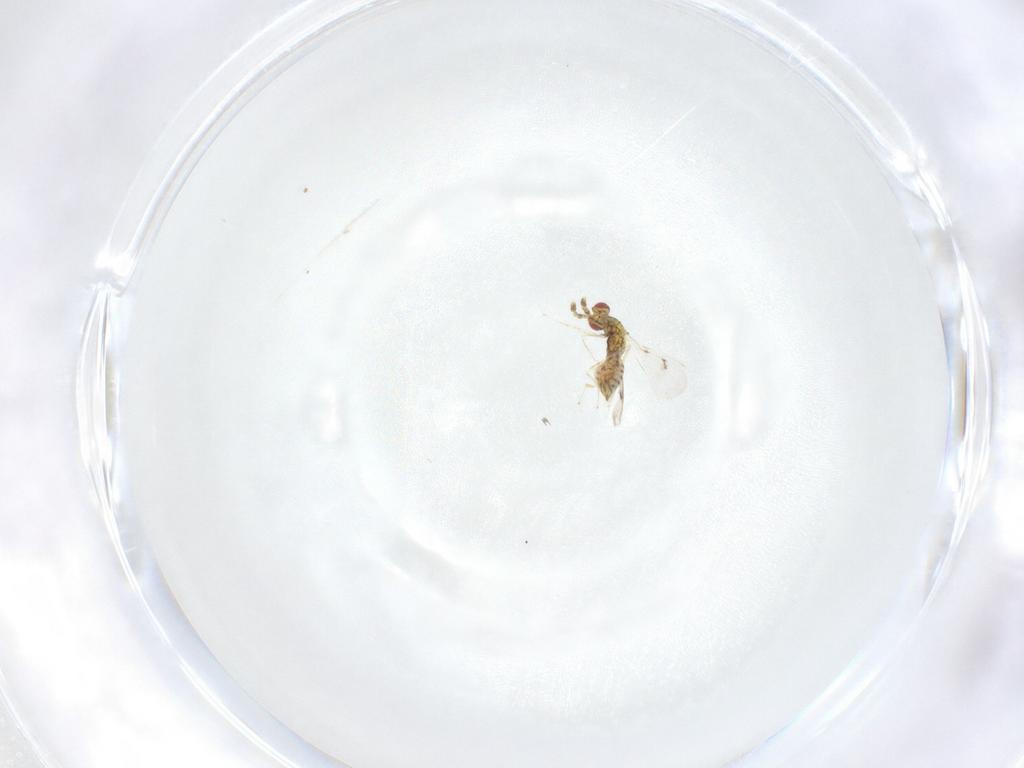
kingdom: Animalia
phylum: Arthropoda
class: Insecta
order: Hymenoptera
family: Eulophidae
